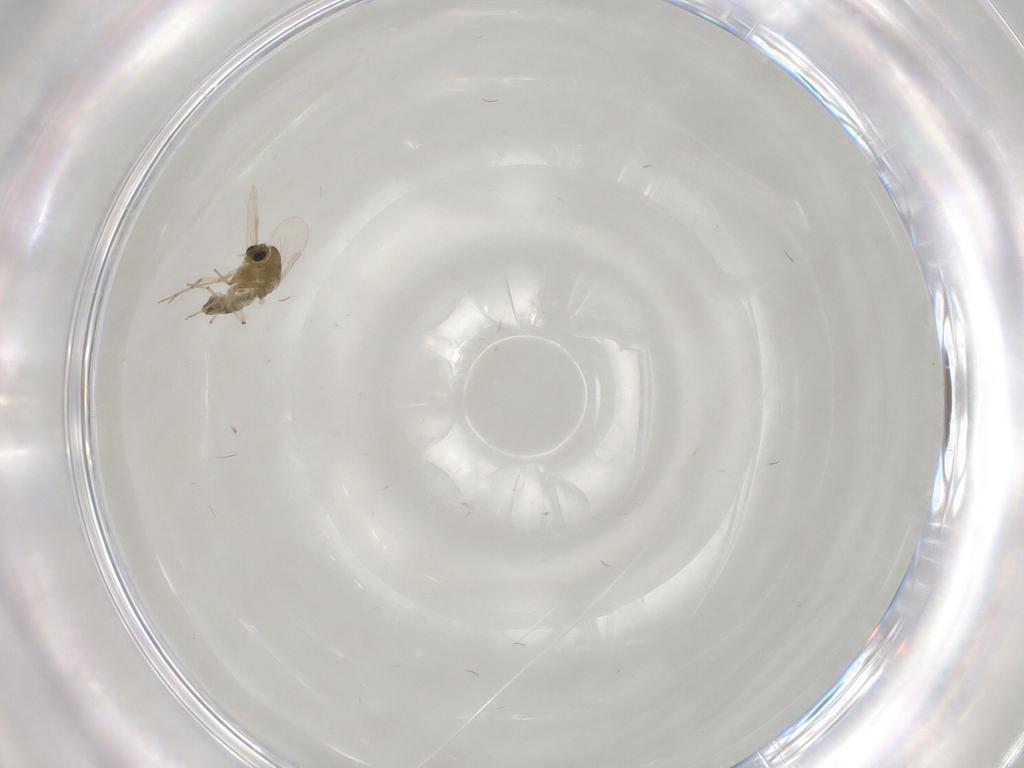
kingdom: Animalia
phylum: Arthropoda
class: Insecta
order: Diptera
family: Chironomidae
